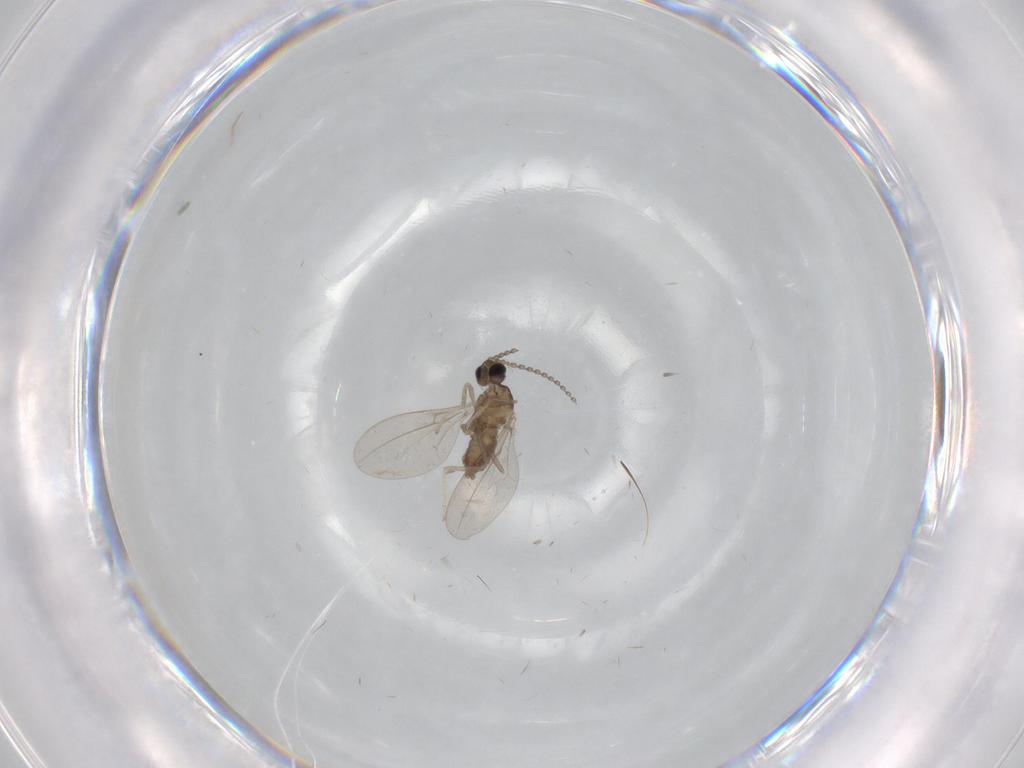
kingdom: Animalia
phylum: Arthropoda
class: Insecta
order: Diptera
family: Cecidomyiidae
